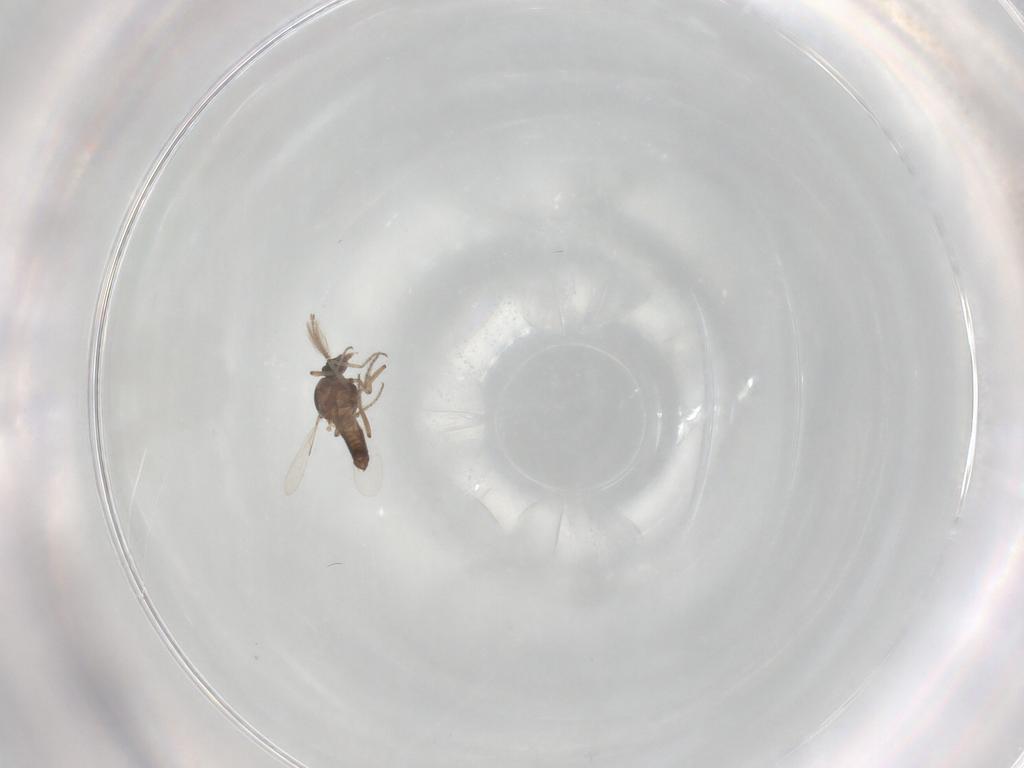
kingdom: Animalia
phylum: Arthropoda
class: Insecta
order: Diptera
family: Ceratopogonidae
